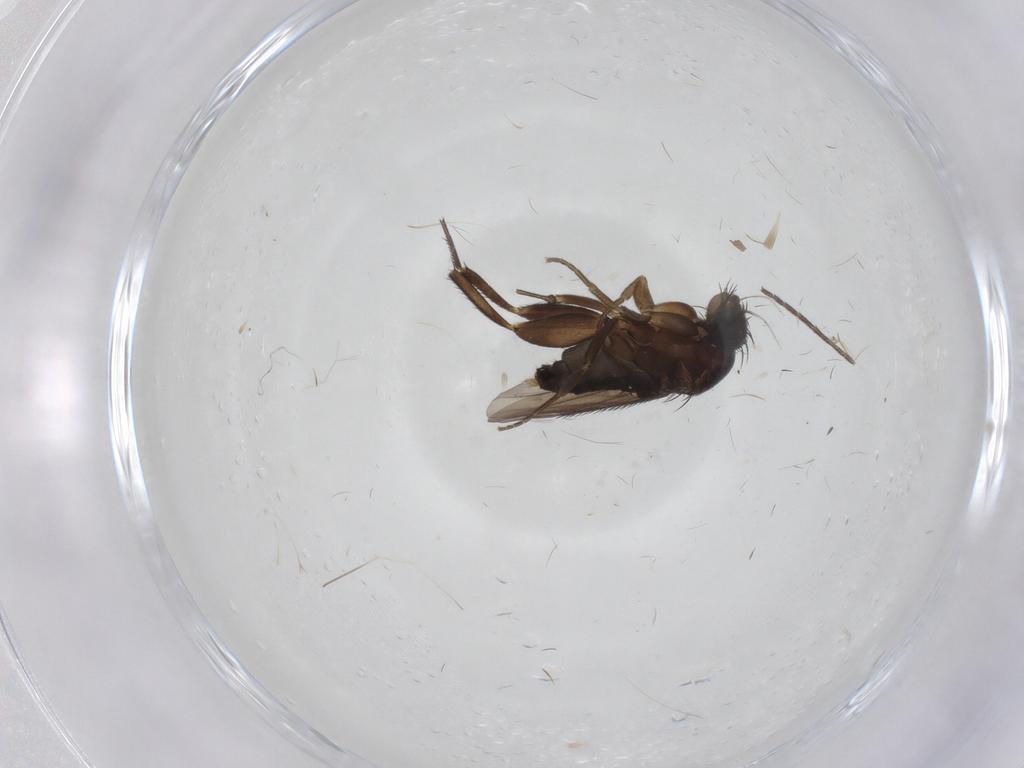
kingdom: Animalia
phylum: Arthropoda
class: Insecta
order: Diptera
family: Phoridae
